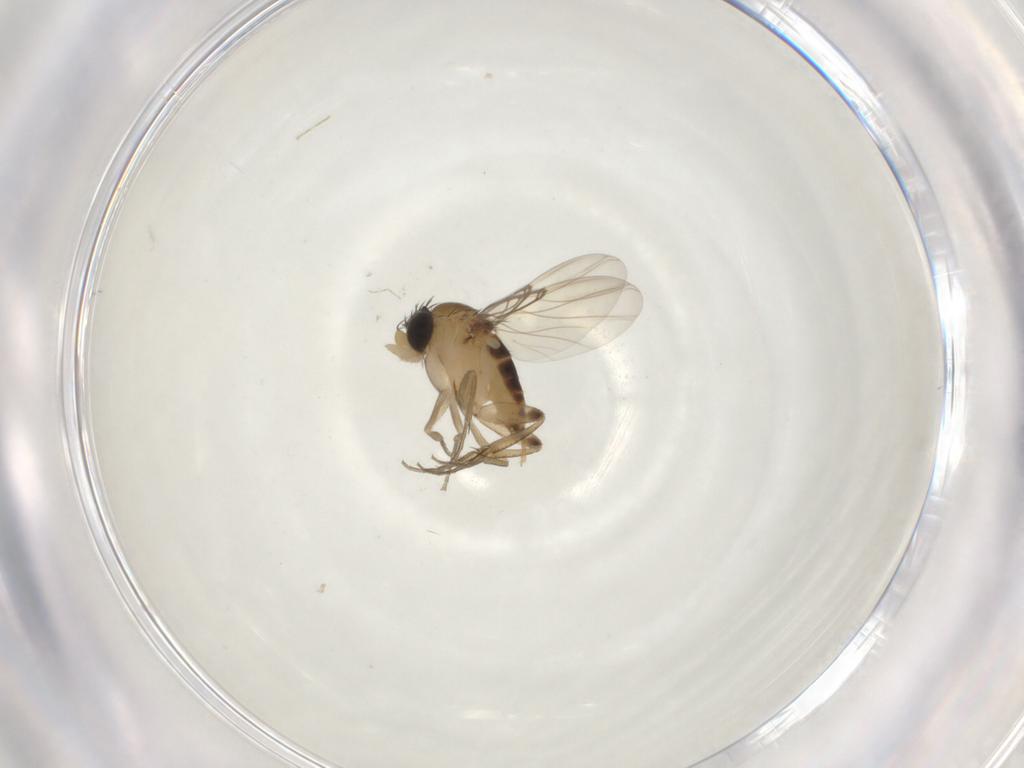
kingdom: Animalia
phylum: Arthropoda
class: Insecta
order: Diptera
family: Phoridae
